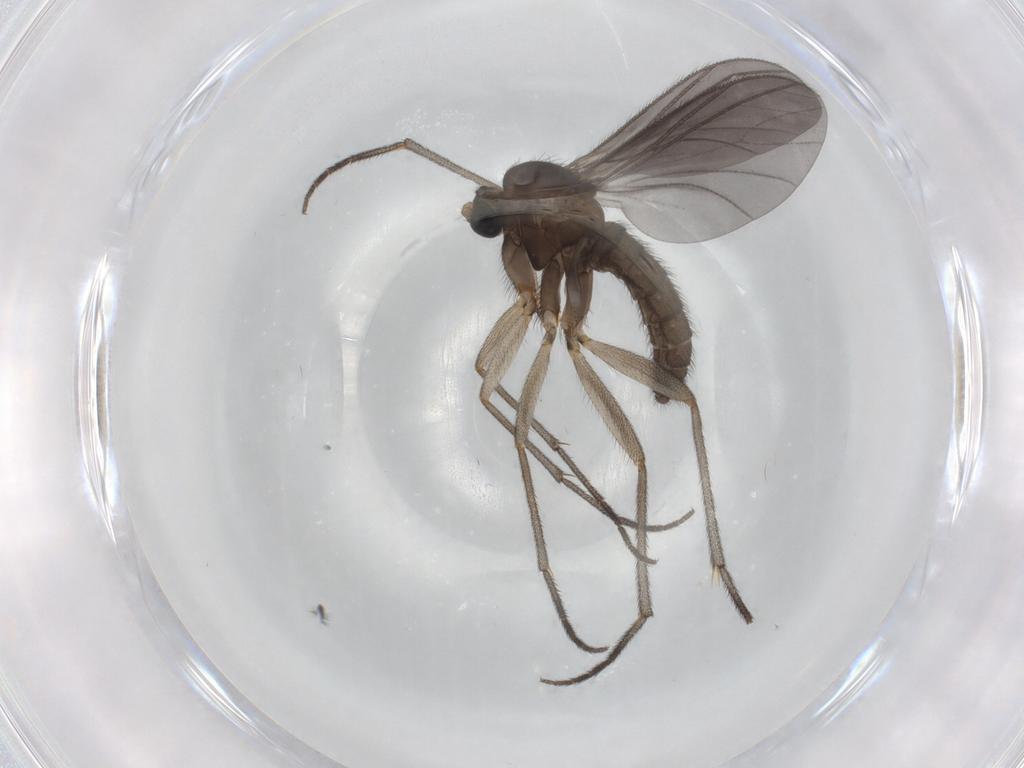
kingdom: Animalia
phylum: Arthropoda
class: Insecta
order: Diptera
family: Sciaridae
